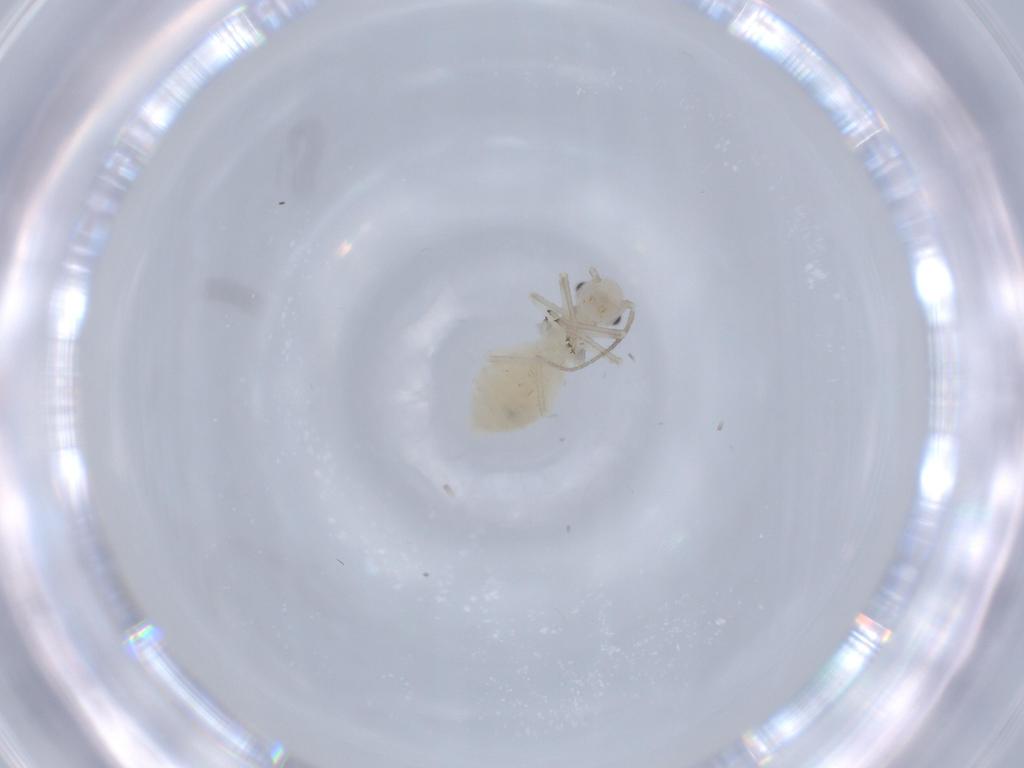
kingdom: Animalia
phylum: Arthropoda
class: Insecta
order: Psocodea
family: Stenopsocidae
